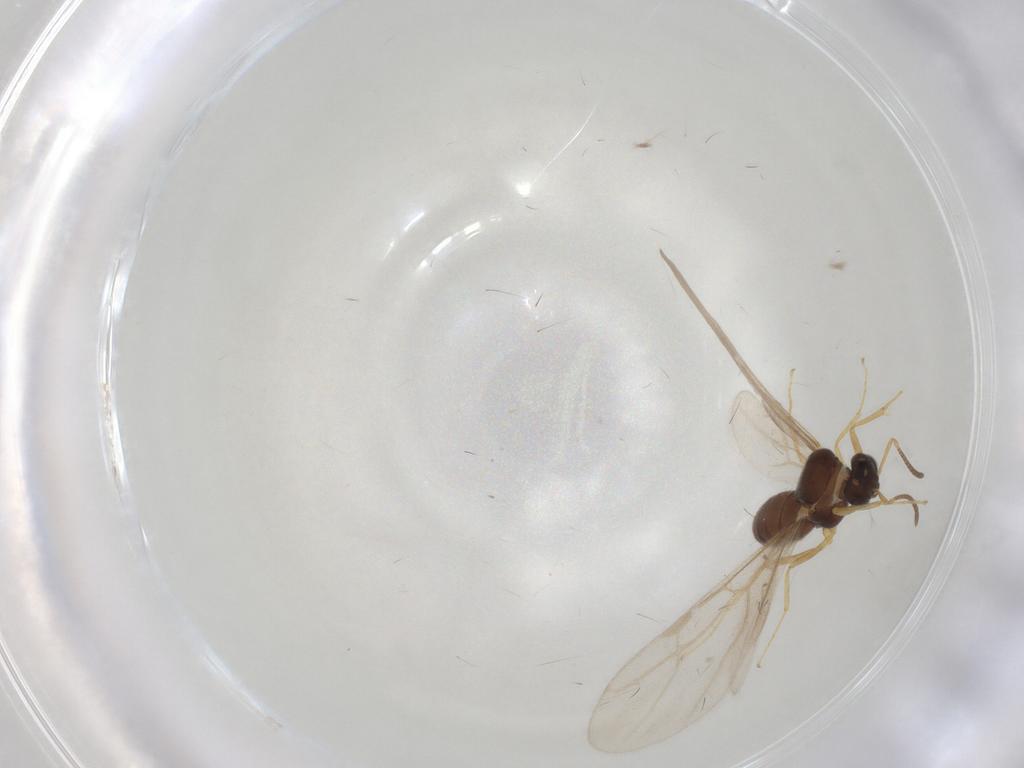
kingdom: Animalia
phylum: Arthropoda
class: Insecta
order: Hymenoptera
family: Formicidae
